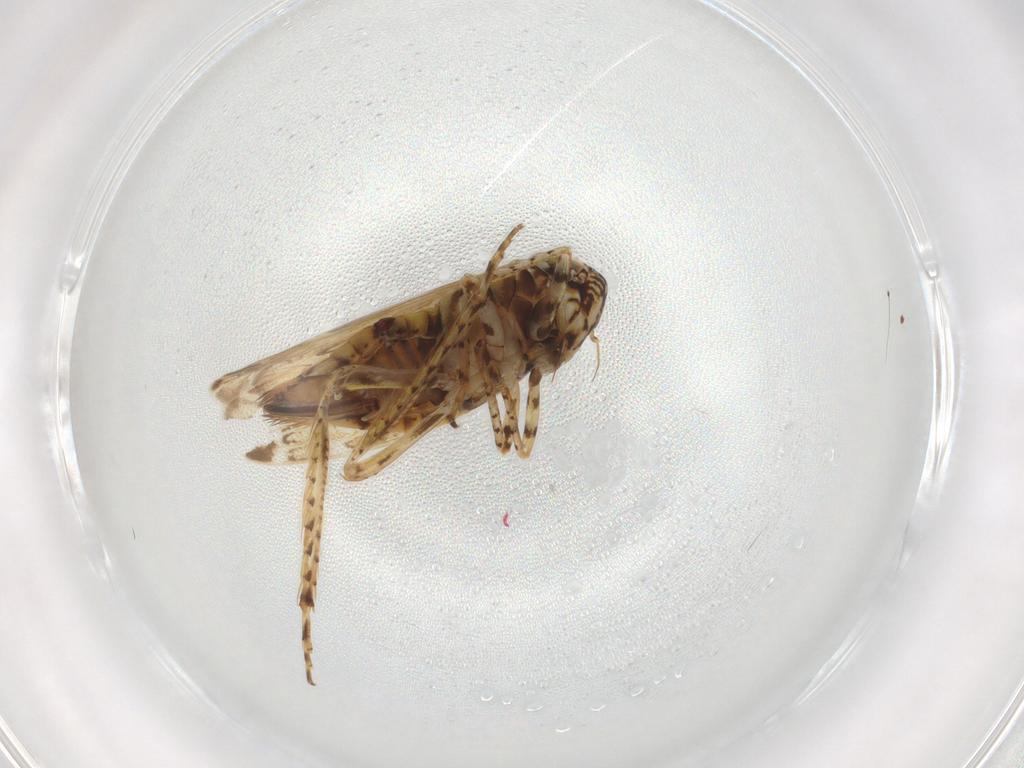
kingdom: Animalia
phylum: Arthropoda
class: Insecta
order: Hemiptera
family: Cicadellidae
